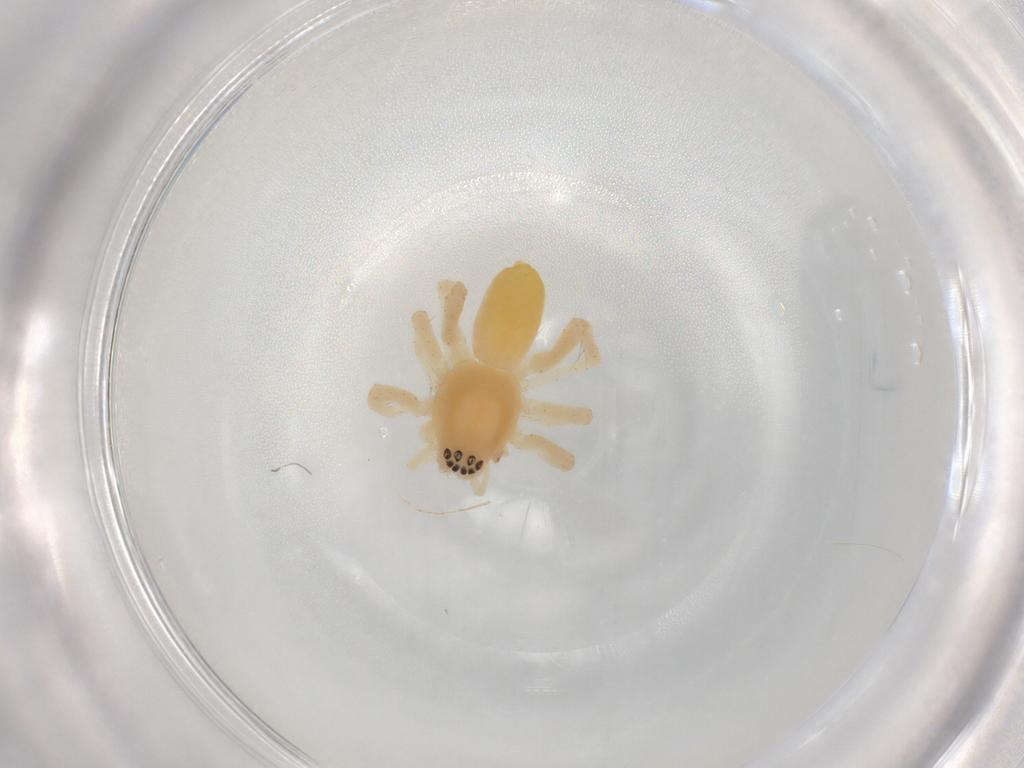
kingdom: Animalia
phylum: Arthropoda
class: Arachnida
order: Araneae
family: Anyphaenidae
